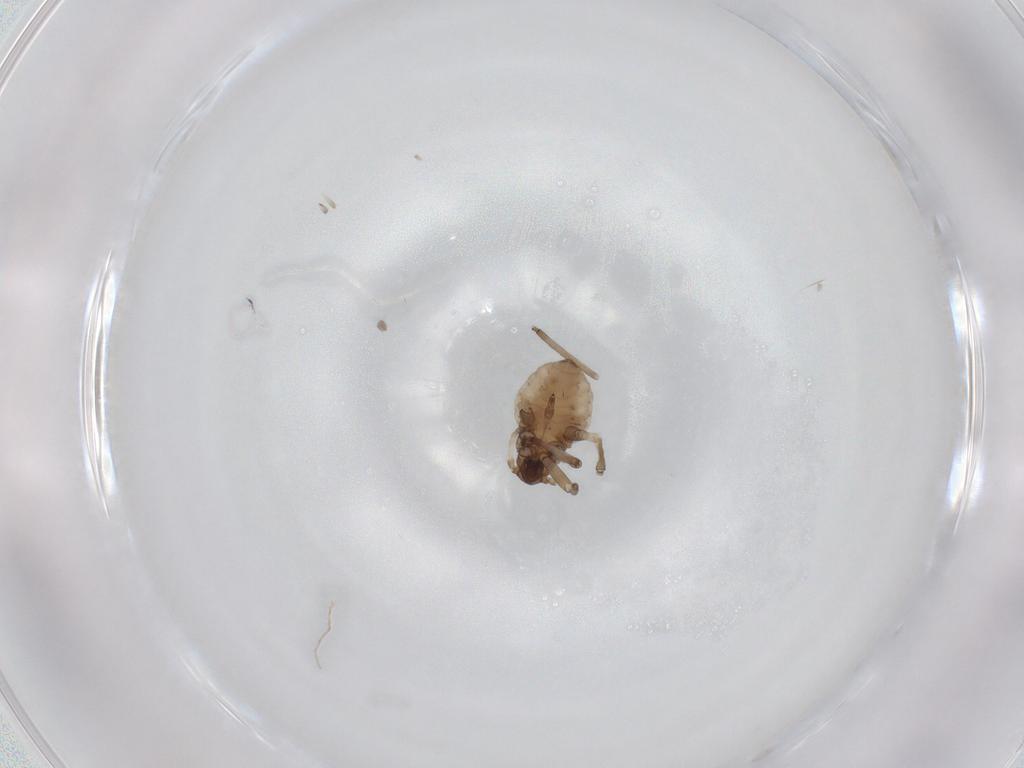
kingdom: Animalia
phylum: Arthropoda
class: Insecta
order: Hemiptera
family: Aphididae
